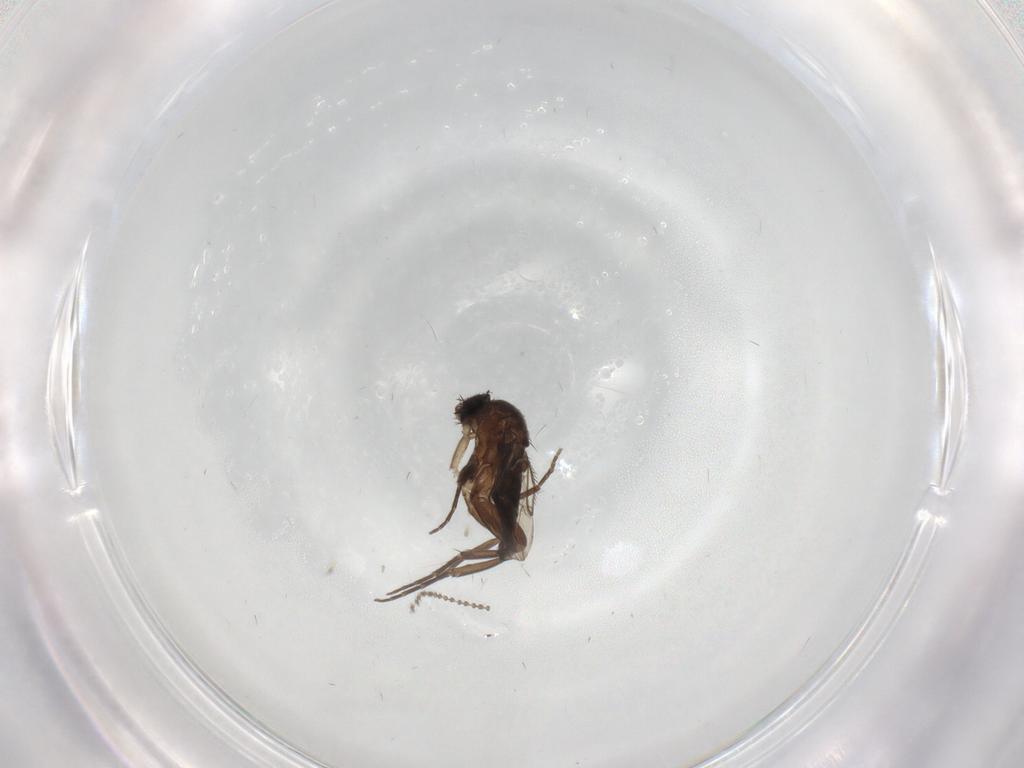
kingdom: Animalia
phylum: Arthropoda
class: Insecta
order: Diptera
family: Phoridae
